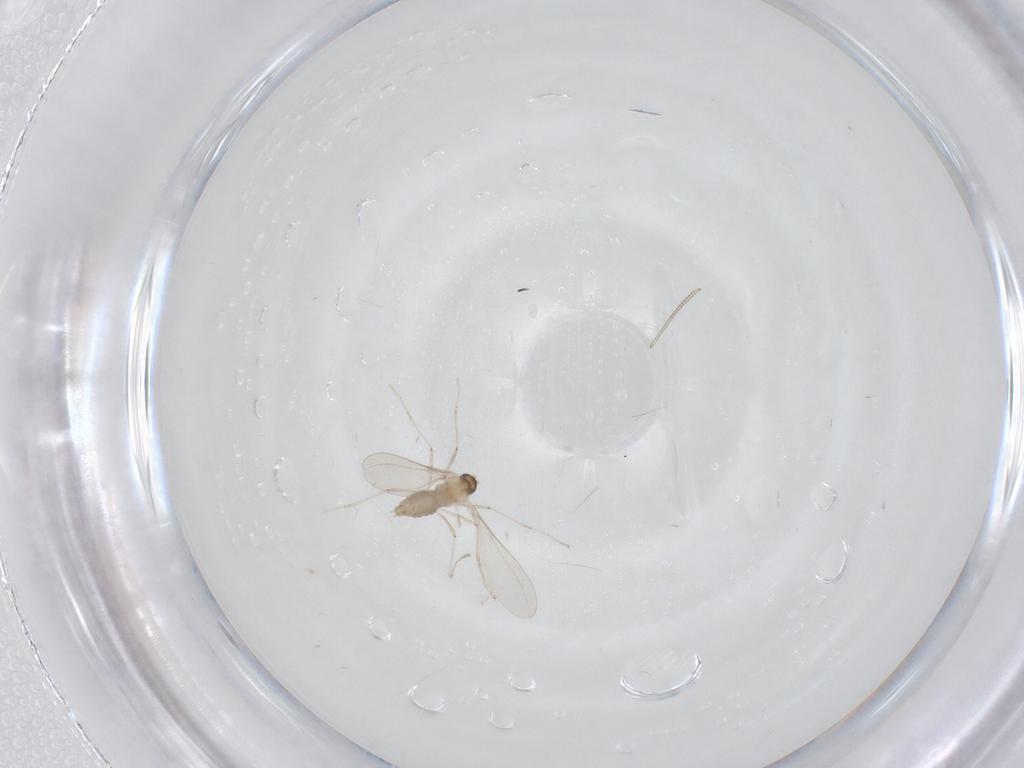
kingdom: Animalia
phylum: Arthropoda
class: Insecta
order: Diptera
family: Cecidomyiidae
